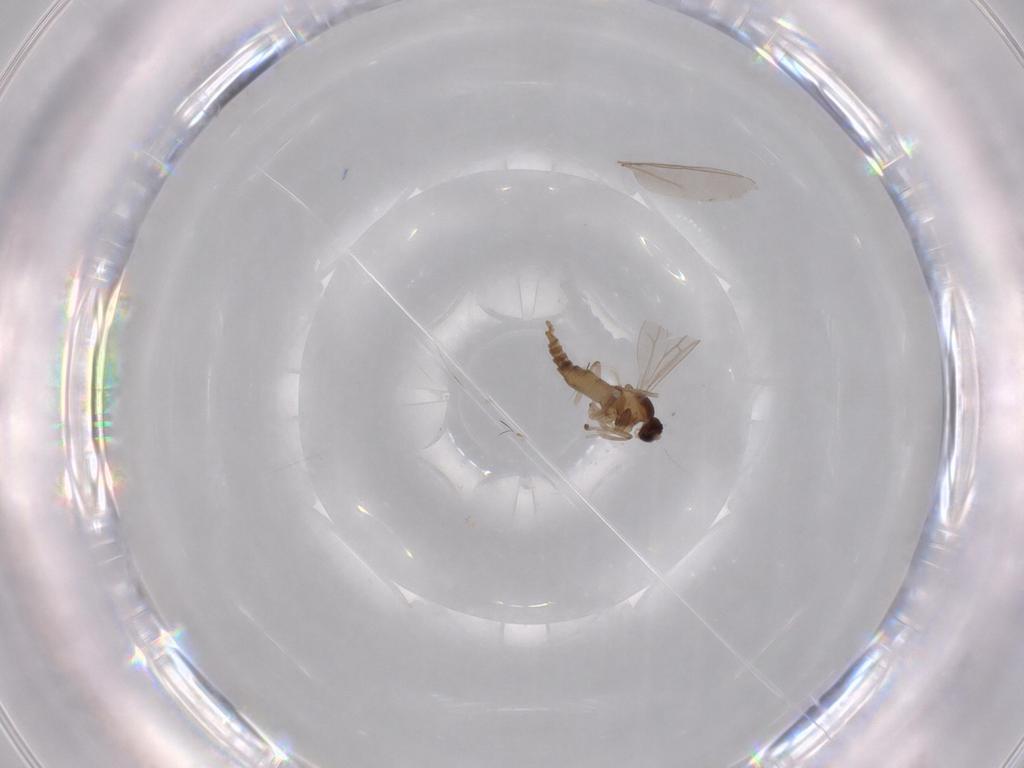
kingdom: Animalia
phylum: Arthropoda
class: Insecta
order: Diptera
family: Cecidomyiidae
